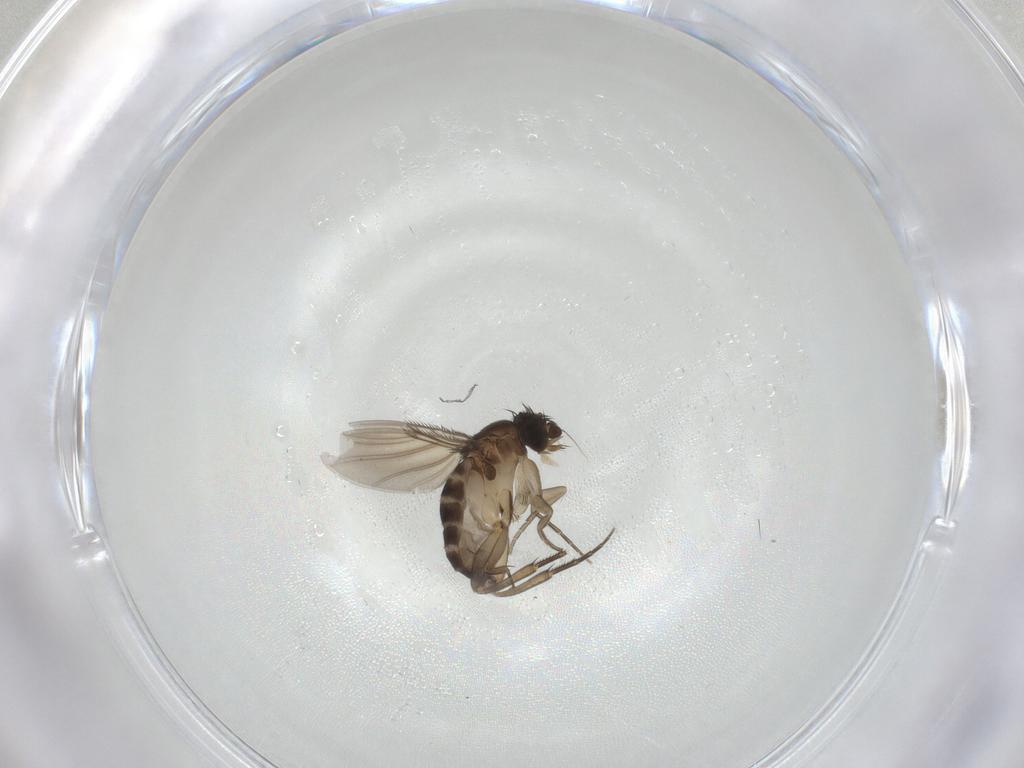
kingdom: Animalia
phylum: Arthropoda
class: Insecta
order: Diptera
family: Phoridae
